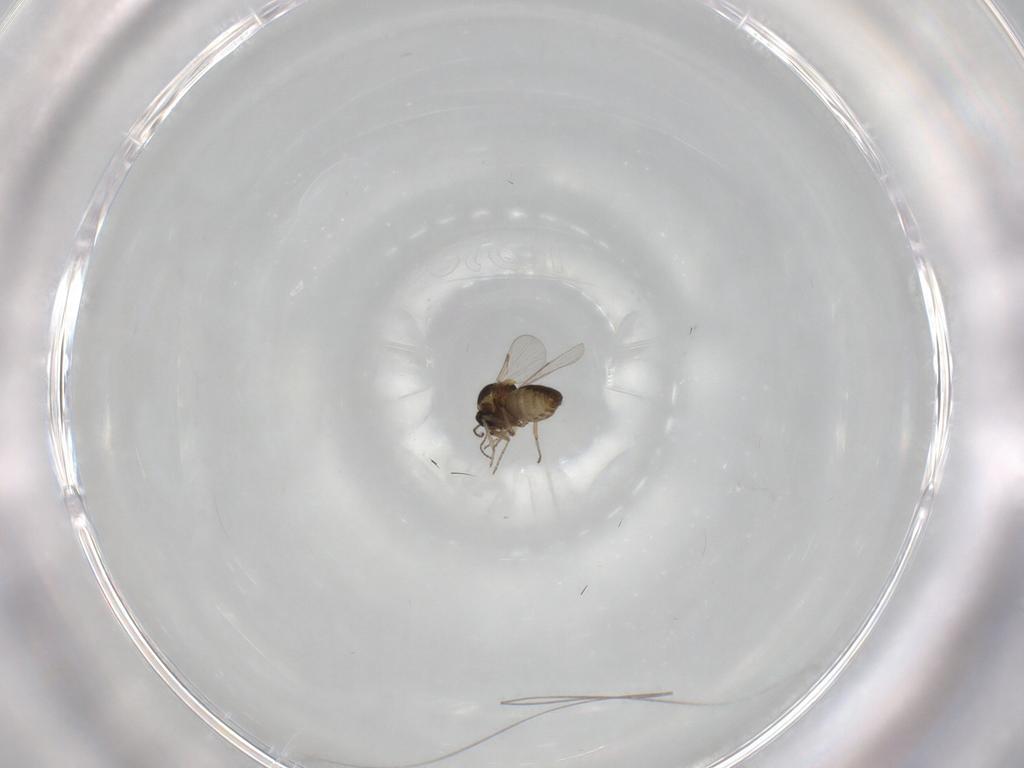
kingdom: Animalia
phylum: Arthropoda
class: Insecta
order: Diptera
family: Ceratopogonidae
